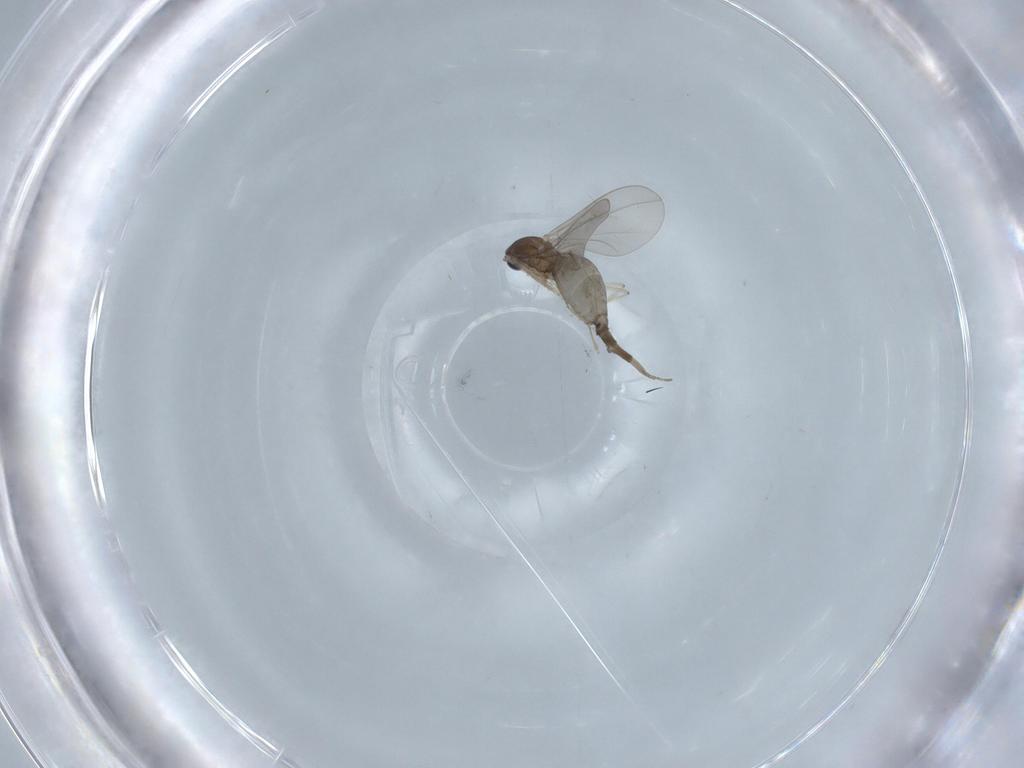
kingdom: Animalia
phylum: Arthropoda
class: Insecta
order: Diptera
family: Cecidomyiidae
